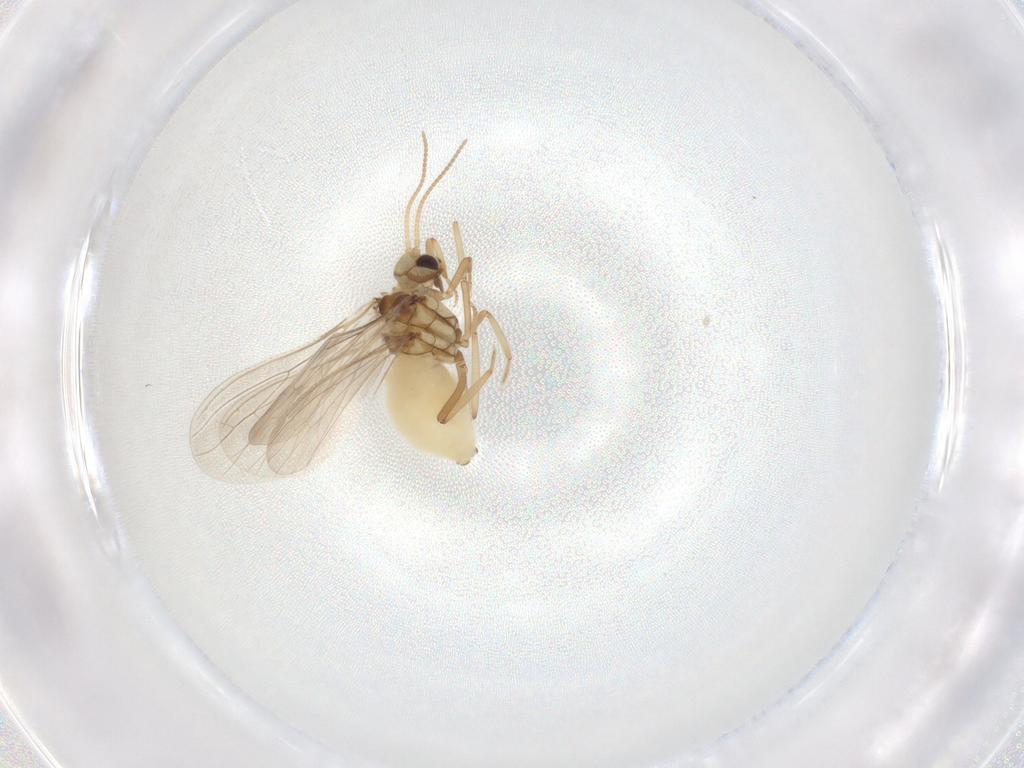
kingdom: Animalia
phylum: Arthropoda
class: Insecta
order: Neuroptera
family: Coniopterygidae
